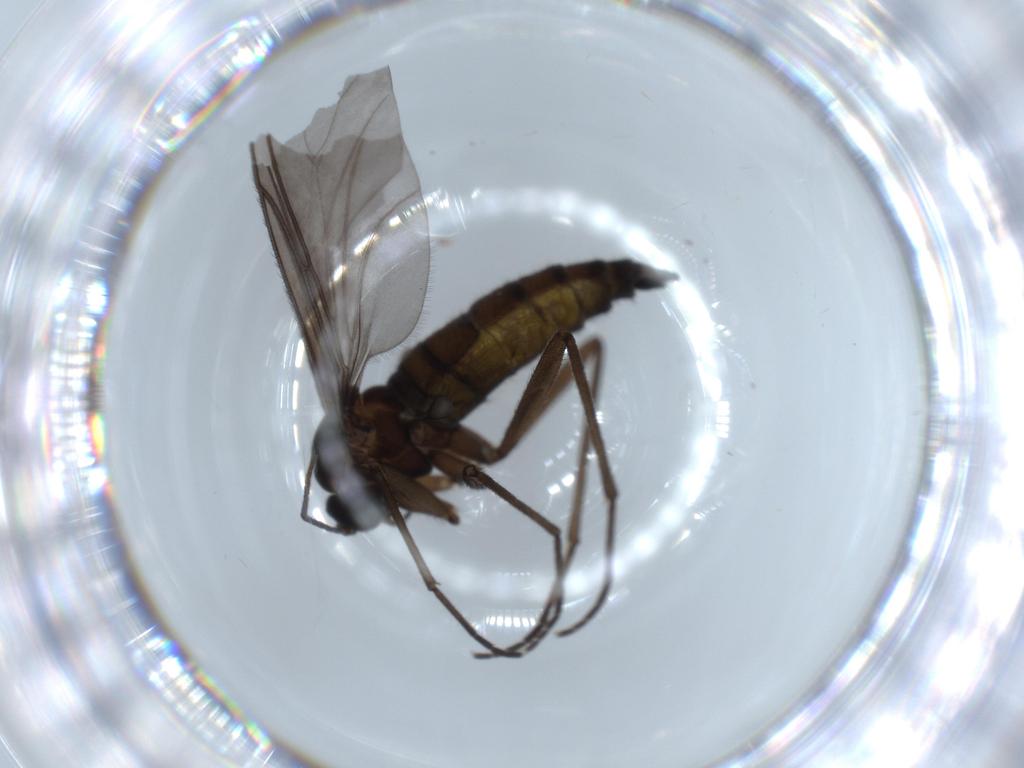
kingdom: Animalia
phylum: Arthropoda
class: Insecta
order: Diptera
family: Sciaridae
